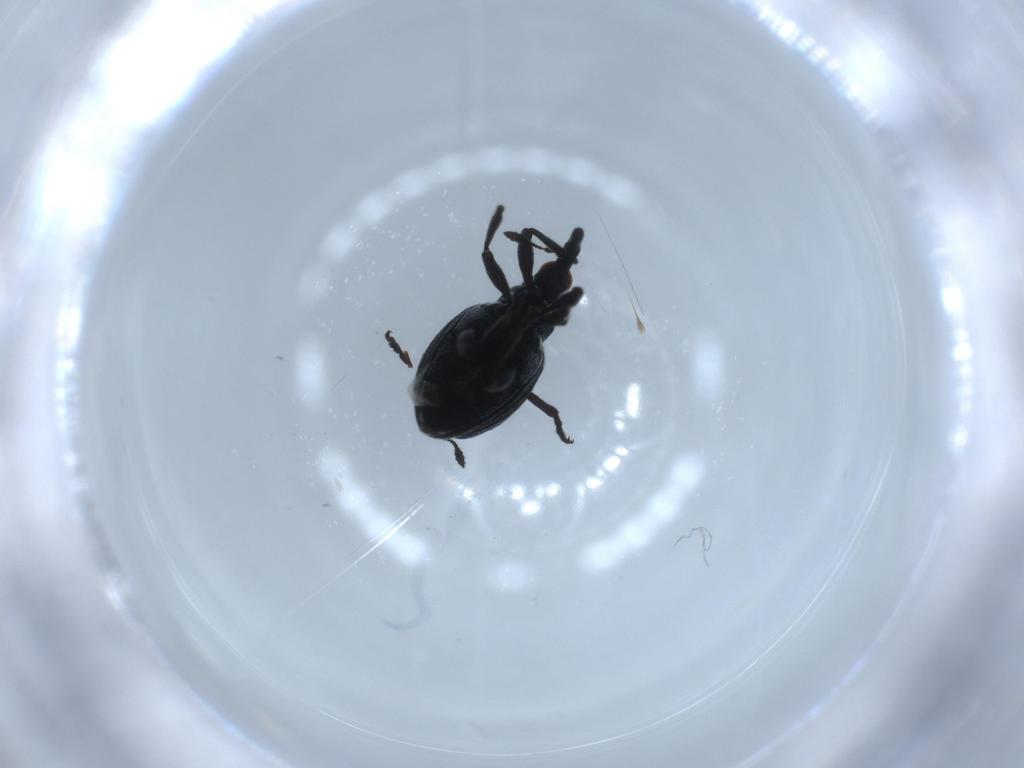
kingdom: Animalia
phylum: Arthropoda
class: Insecta
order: Coleoptera
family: Brentidae
